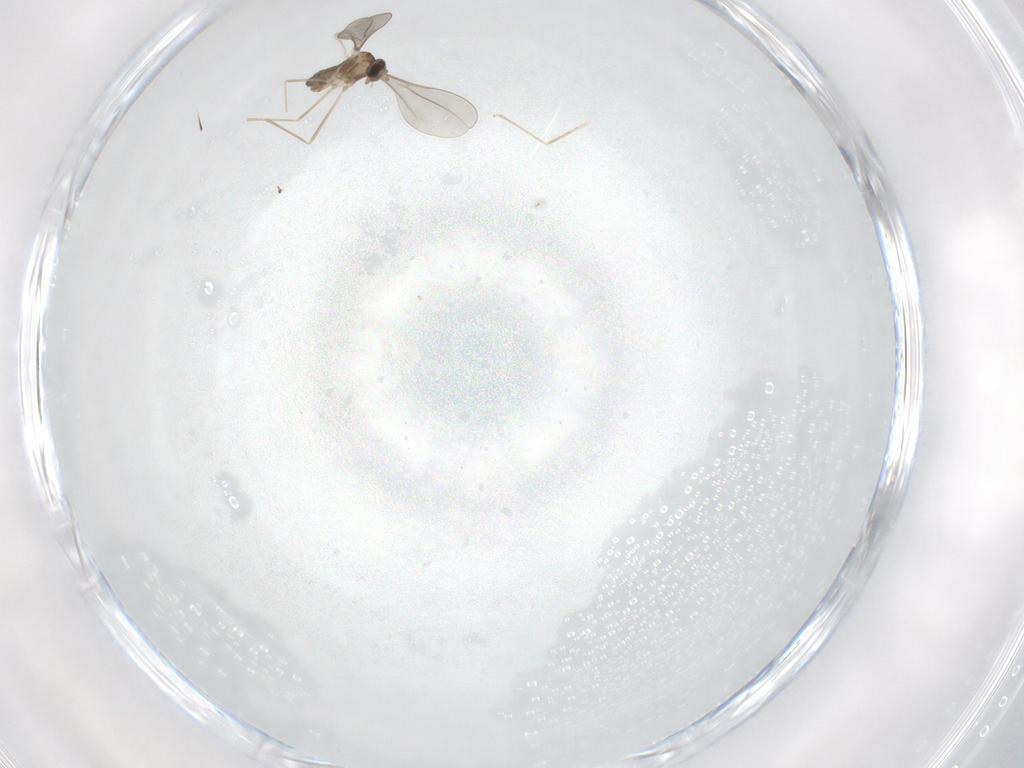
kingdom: Animalia
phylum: Arthropoda
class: Insecta
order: Diptera
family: Cecidomyiidae
